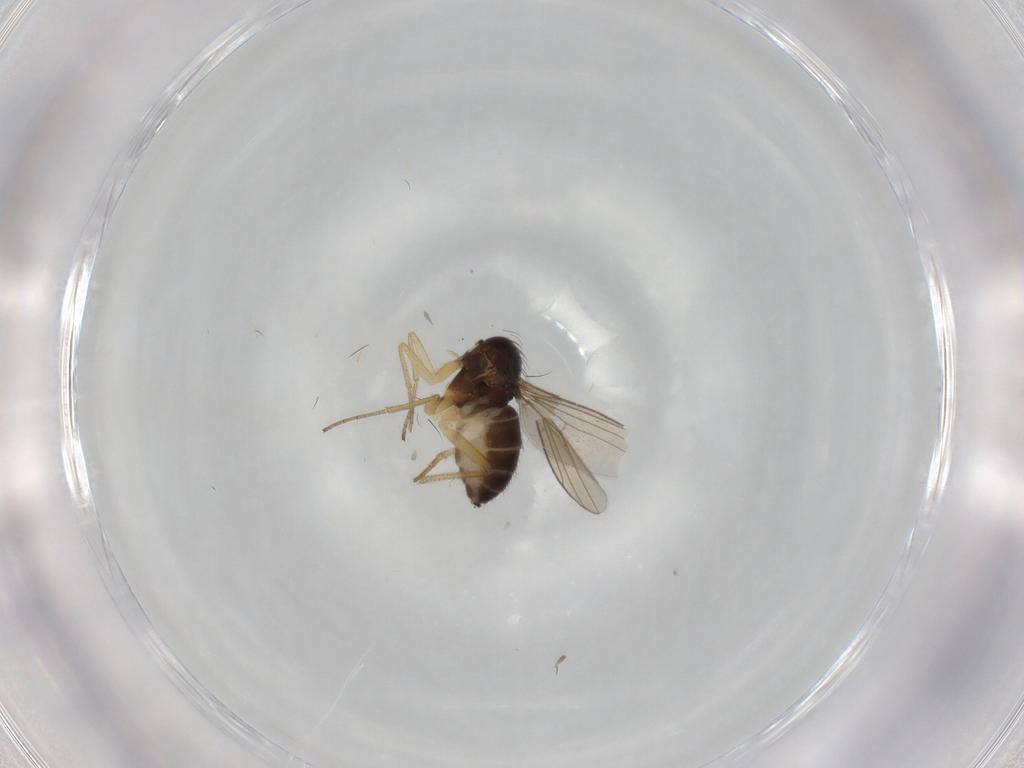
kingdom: Animalia
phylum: Arthropoda
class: Insecta
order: Diptera
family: Dolichopodidae
